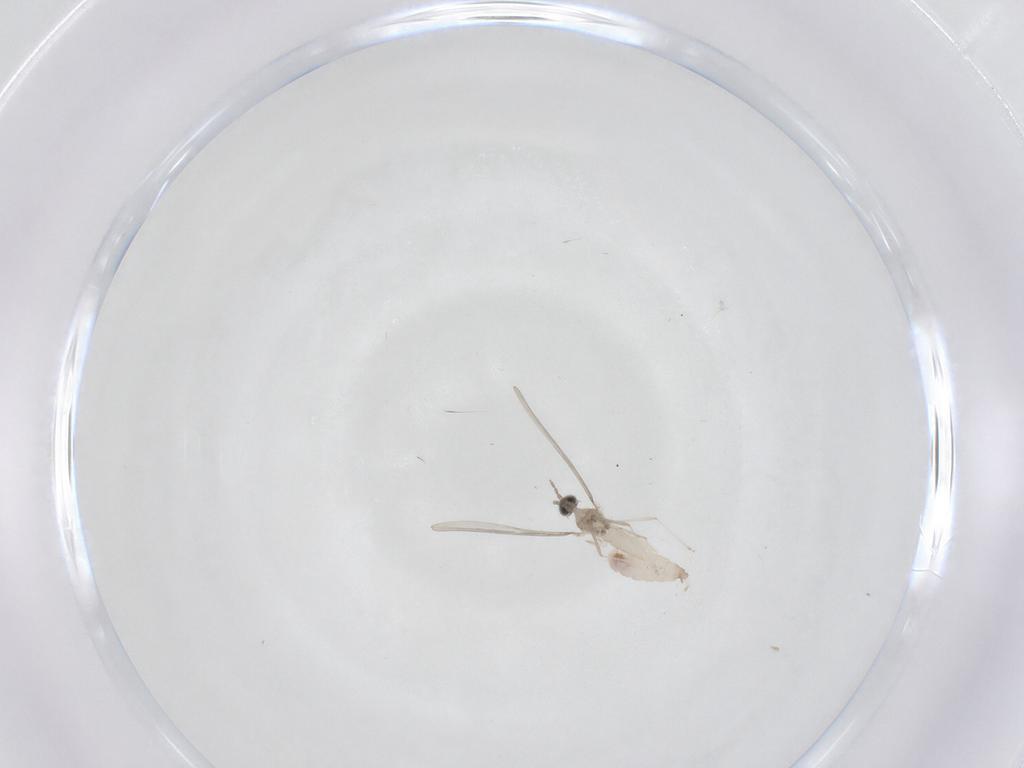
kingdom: Animalia
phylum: Arthropoda
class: Insecta
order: Diptera
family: Cecidomyiidae
